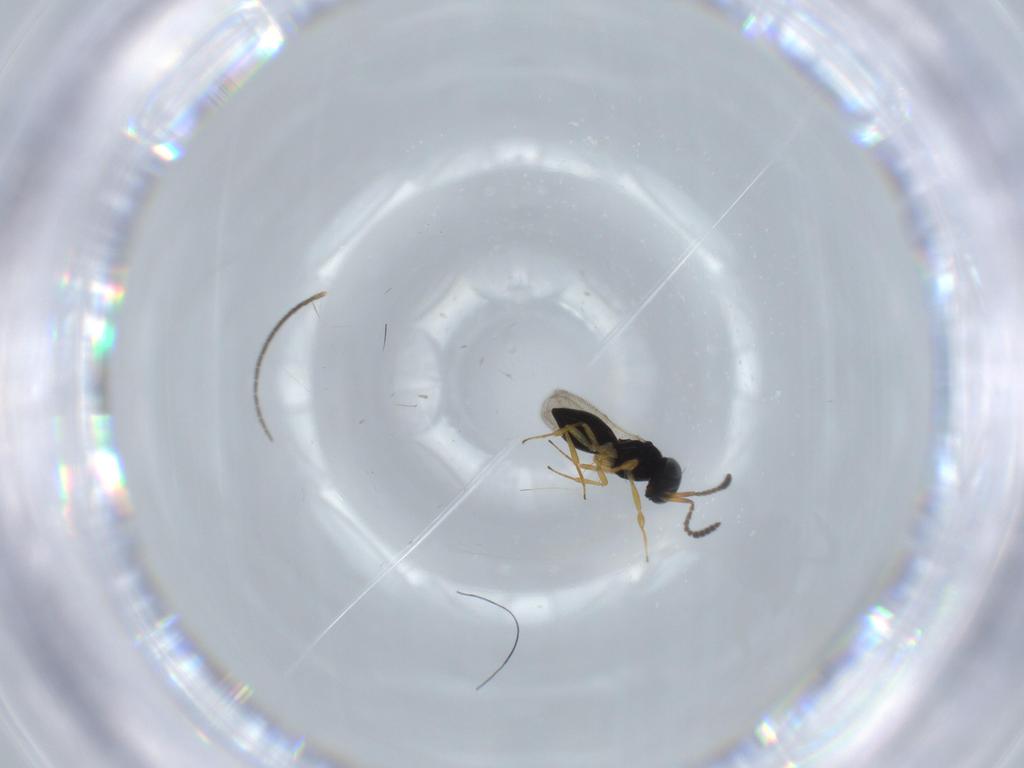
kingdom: Animalia
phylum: Arthropoda
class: Insecta
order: Hymenoptera
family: Scelionidae
